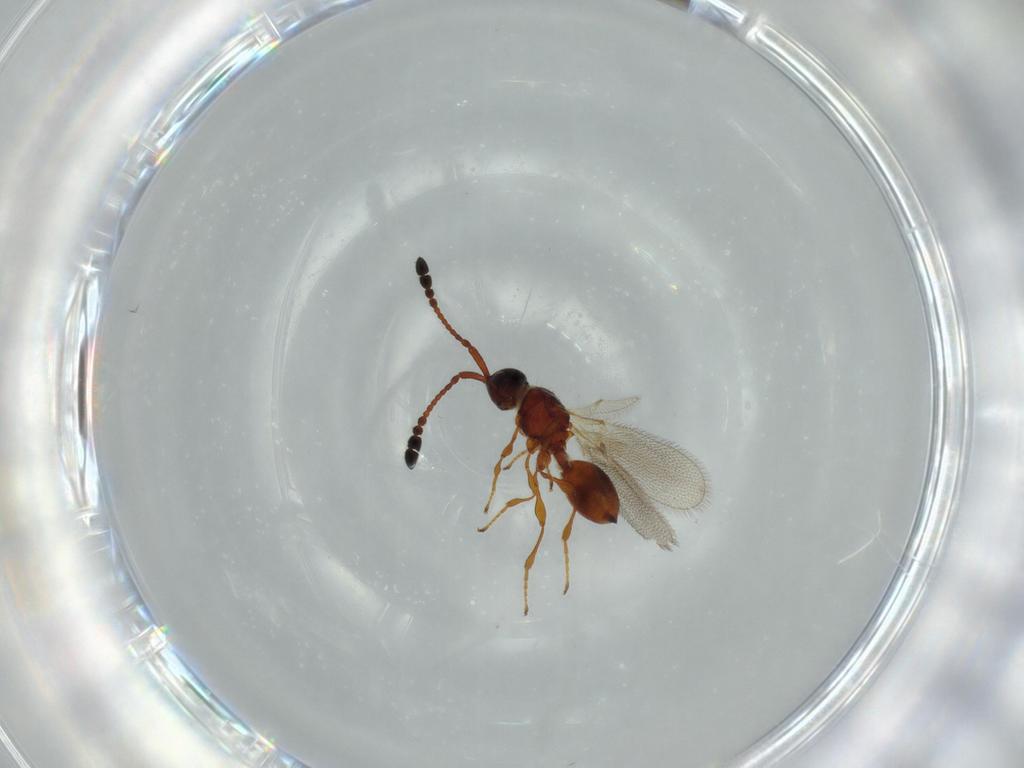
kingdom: Animalia
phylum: Arthropoda
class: Insecta
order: Hymenoptera
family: Diapriidae
